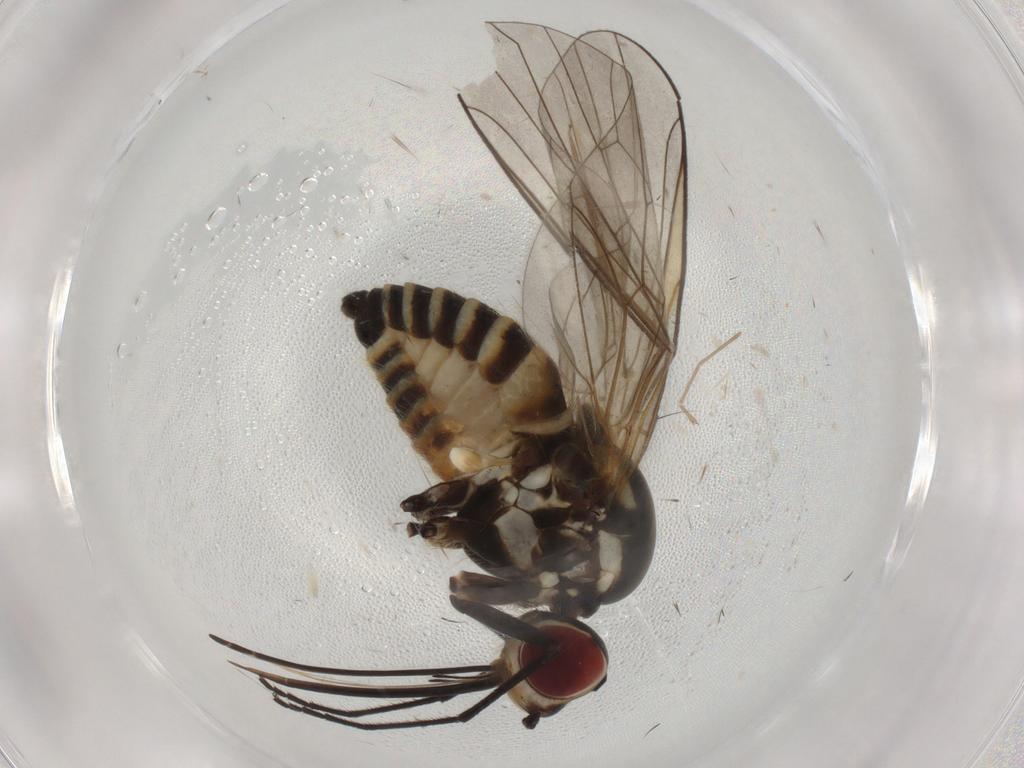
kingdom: Animalia
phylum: Arthropoda
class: Insecta
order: Diptera
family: Bombyliidae
